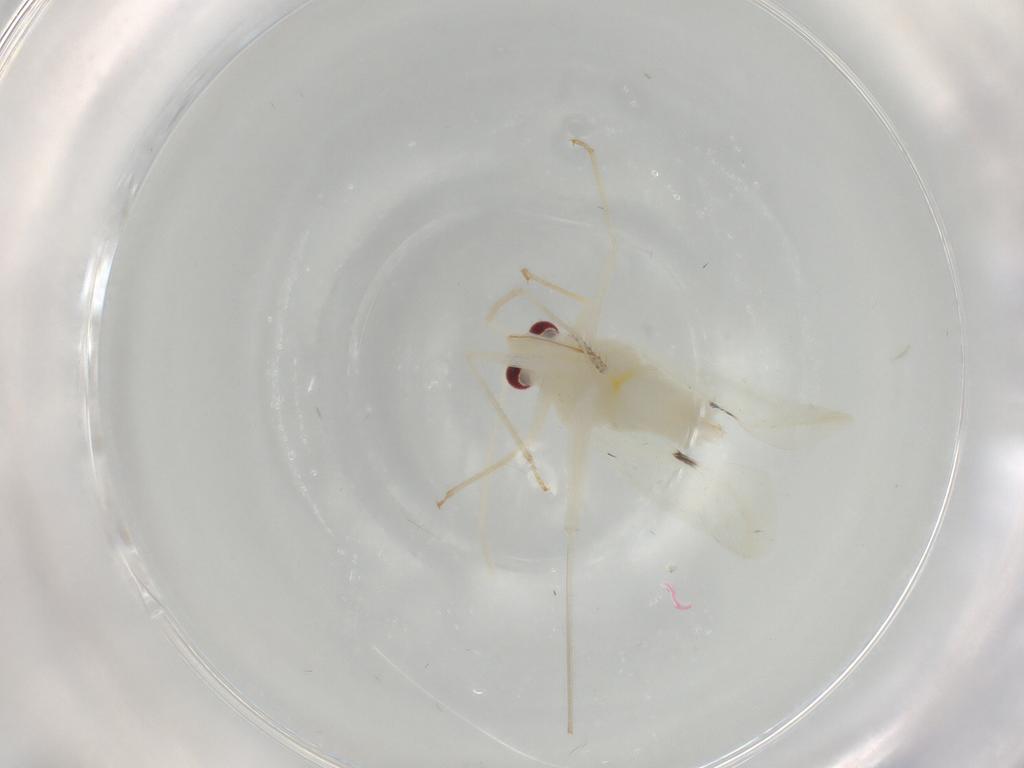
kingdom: Animalia
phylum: Arthropoda
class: Insecta
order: Hemiptera
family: Miridae
